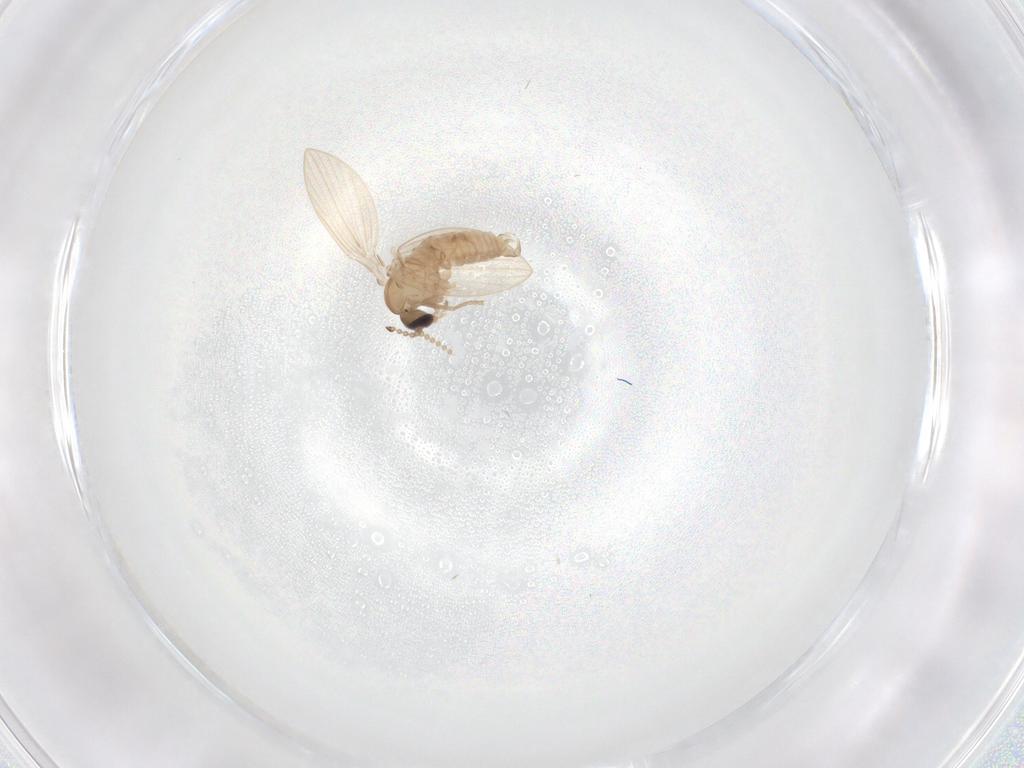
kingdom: Animalia
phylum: Arthropoda
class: Insecta
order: Diptera
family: Psychodidae
